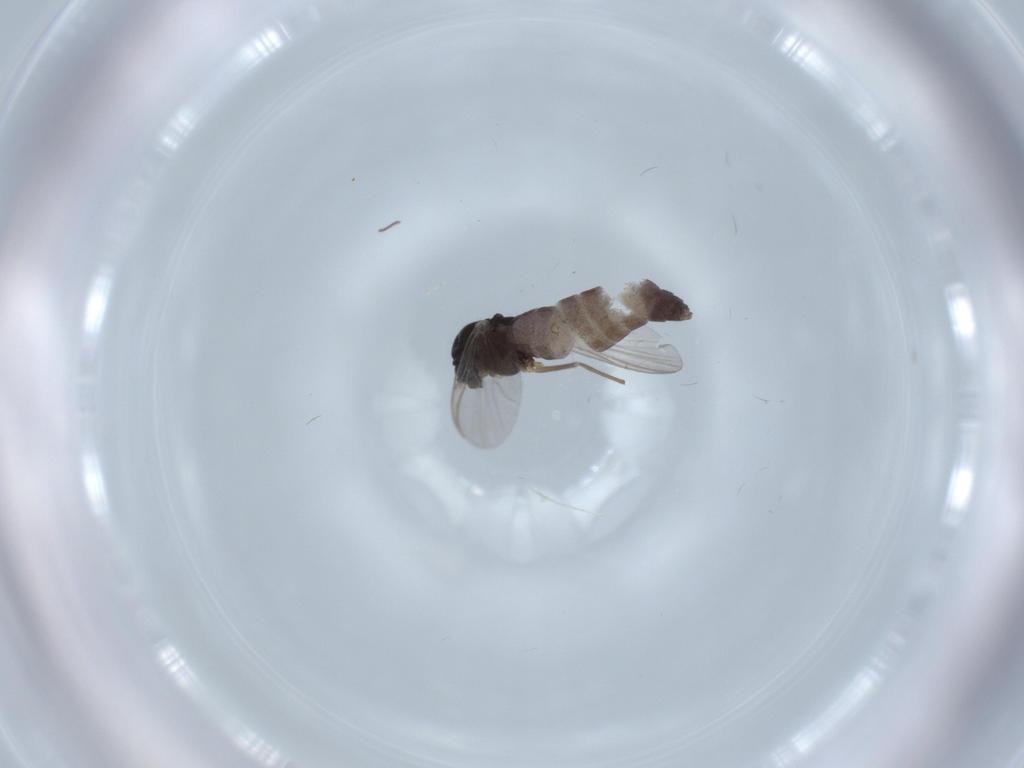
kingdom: Animalia
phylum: Arthropoda
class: Insecta
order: Diptera
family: Chironomidae
